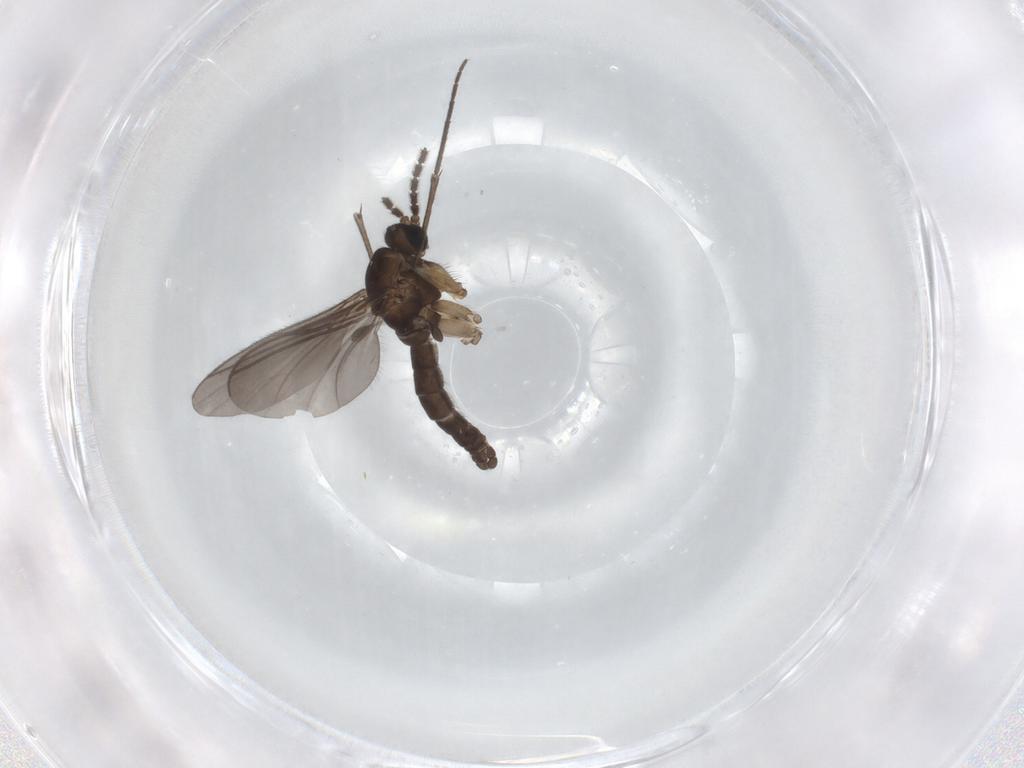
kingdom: Animalia
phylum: Arthropoda
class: Insecta
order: Diptera
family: Sciaridae
